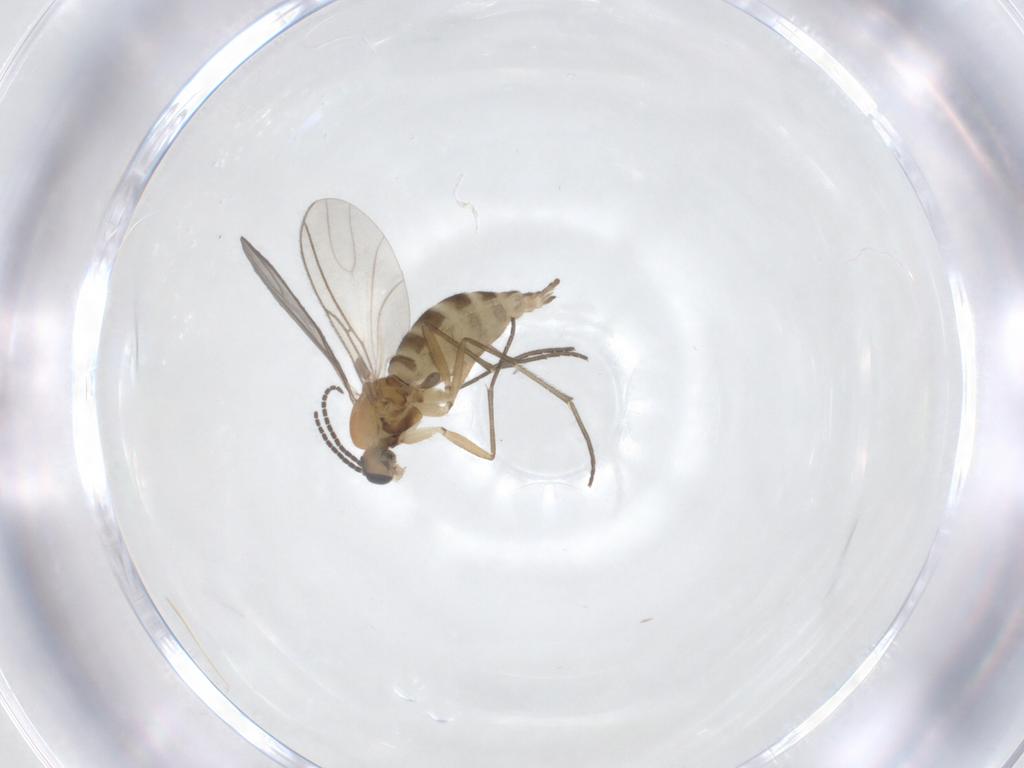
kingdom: Animalia
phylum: Arthropoda
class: Insecta
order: Diptera
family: Sciaridae
